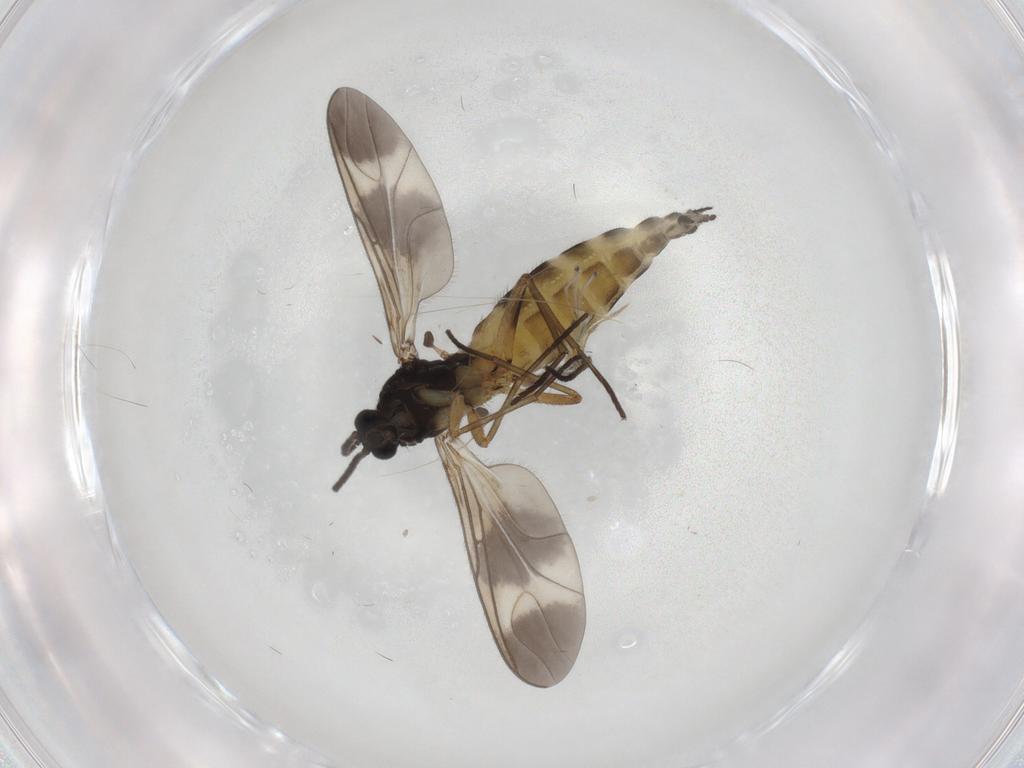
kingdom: Animalia
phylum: Arthropoda
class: Insecta
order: Diptera
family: Sciaridae
